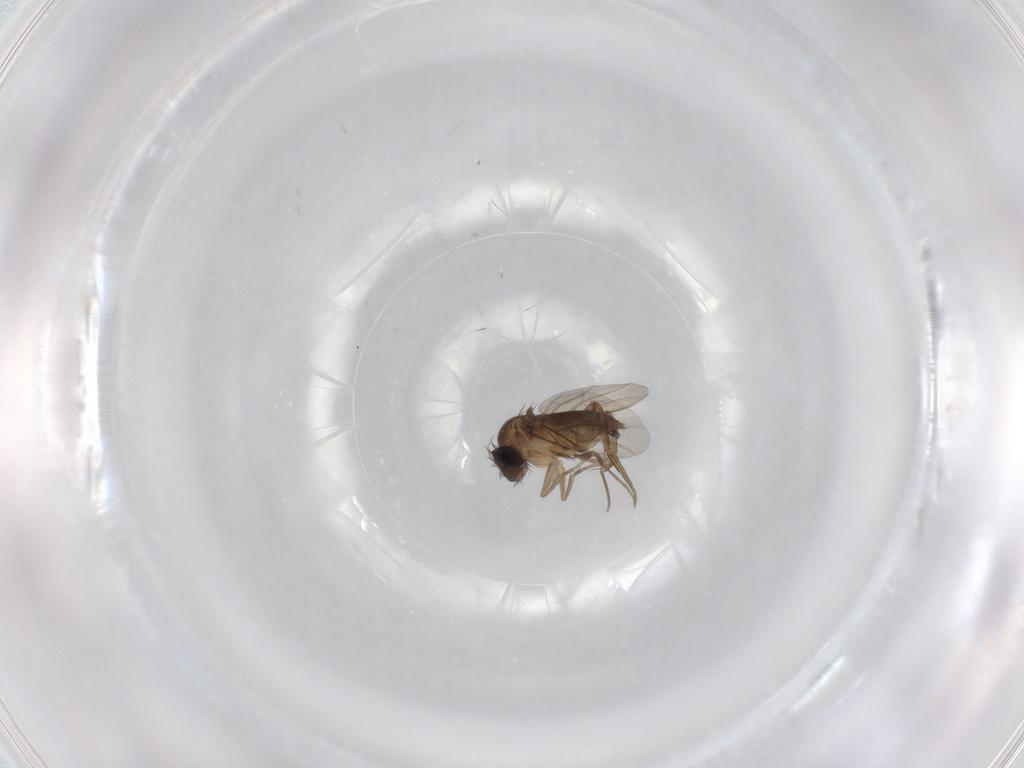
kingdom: Animalia
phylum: Arthropoda
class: Insecta
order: Diptera
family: Phoridae
